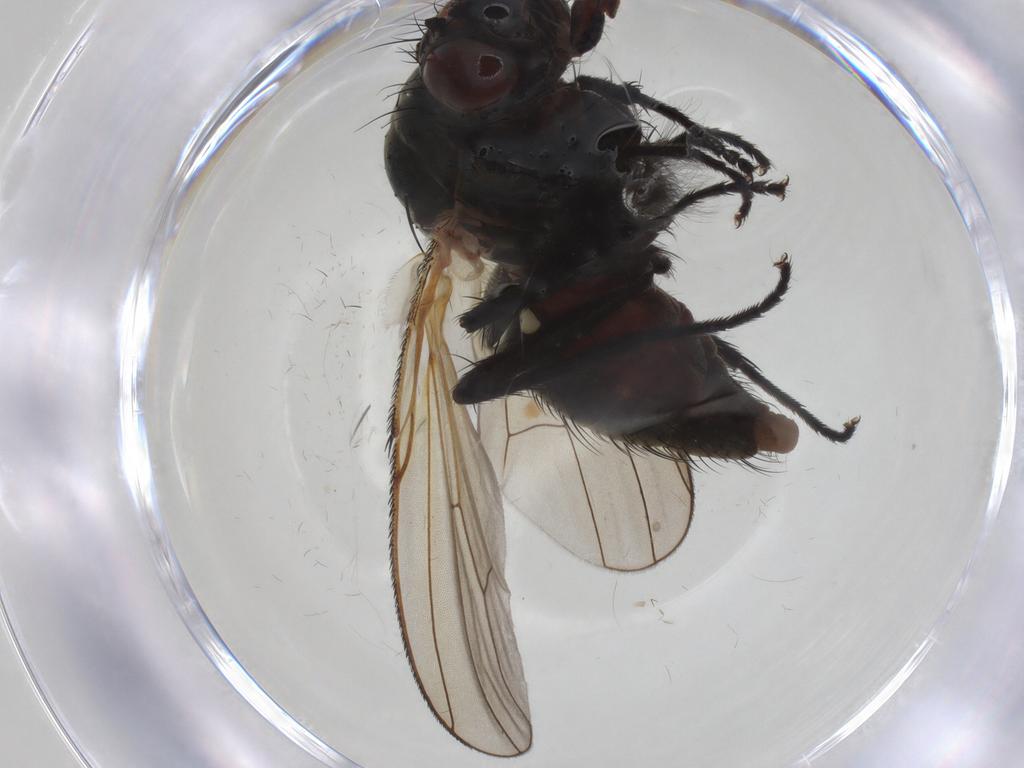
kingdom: Animalia
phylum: Arthropoda
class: Insecta
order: Diptera
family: Anthomyiidae
